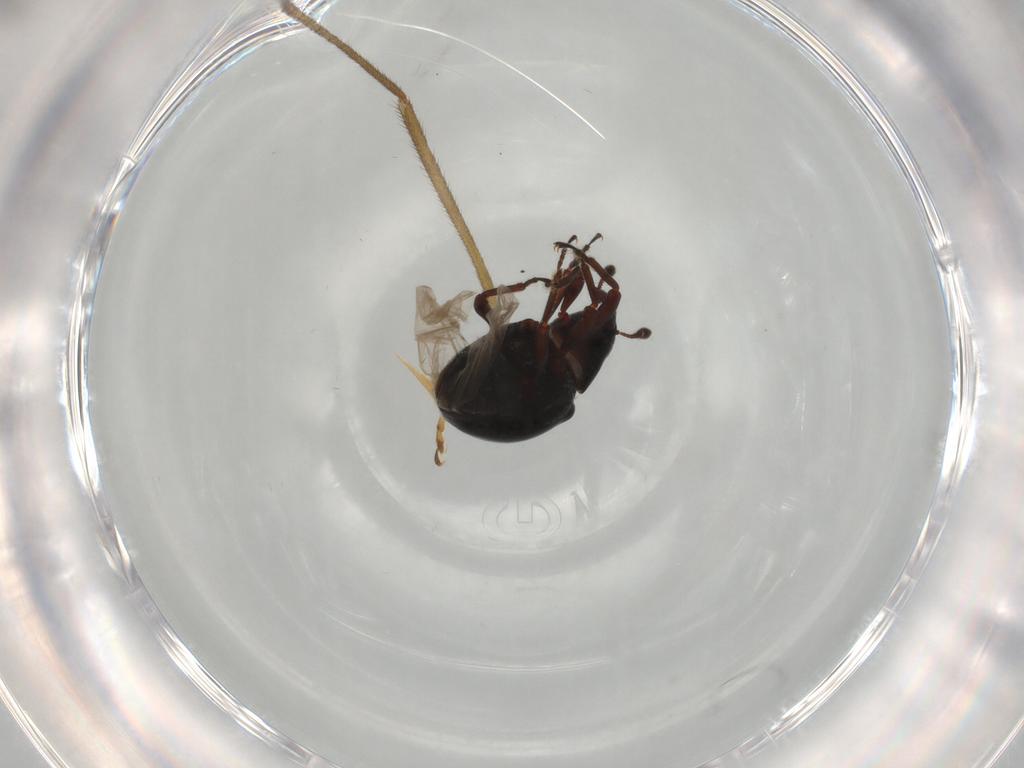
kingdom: Animalia
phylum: Arthropoda
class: Insecta
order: Coleoptera
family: Curculionidae
